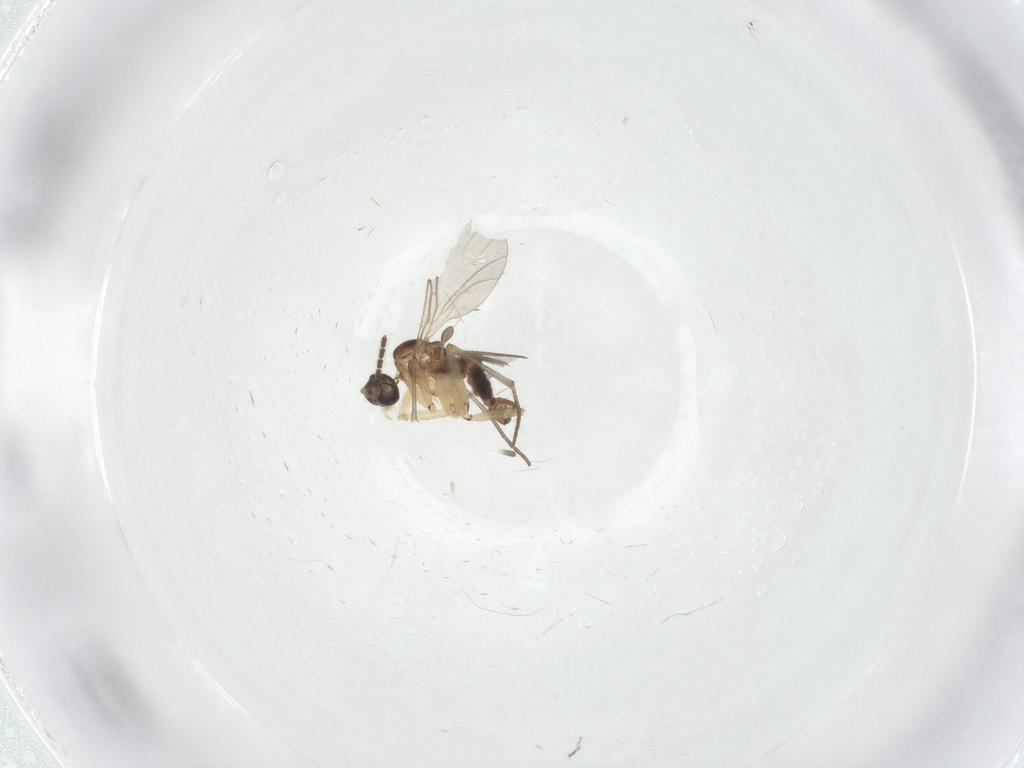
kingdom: Animalia
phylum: Arthropoda
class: Insecta
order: Diptera
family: Sciaridae
